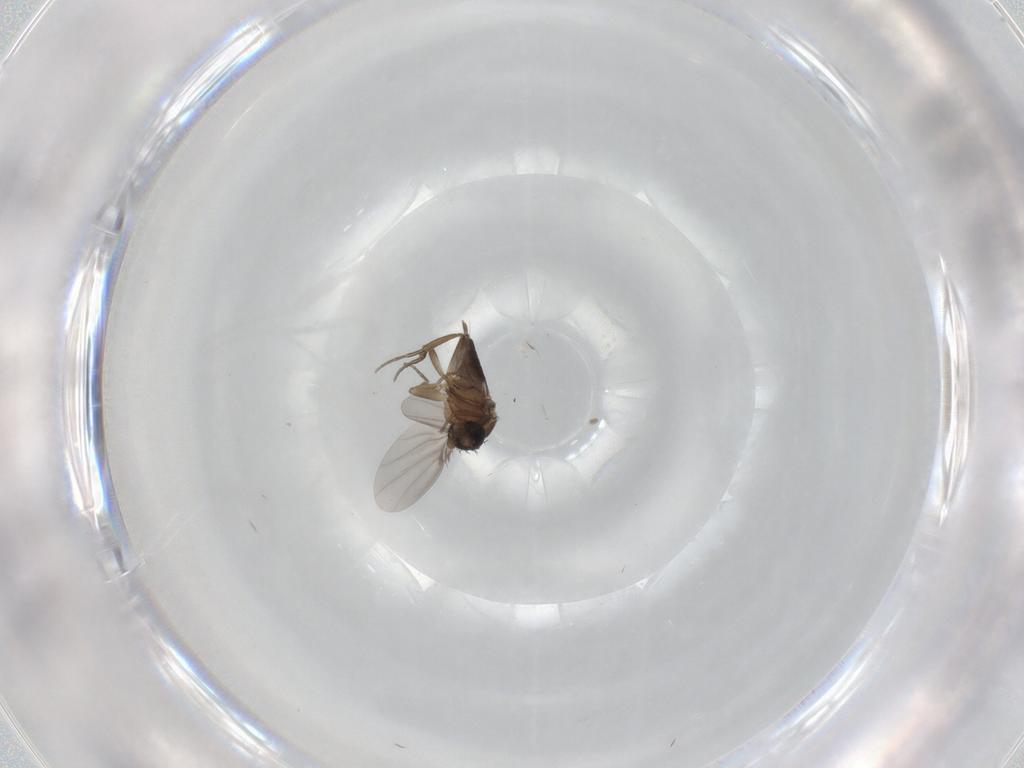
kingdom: Animalia
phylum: Arthropoda
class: Insecta
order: Diptera
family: Phoridae
